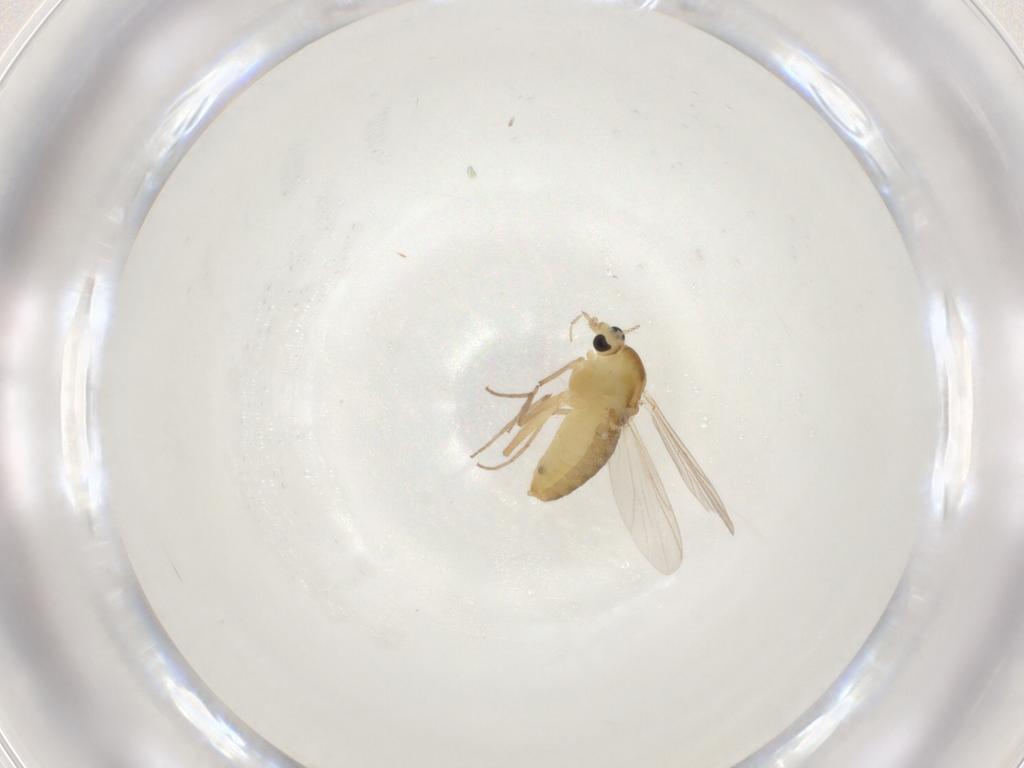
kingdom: Animalia
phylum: Arthropoda
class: Insecta
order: Diptera
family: Chironomidae
